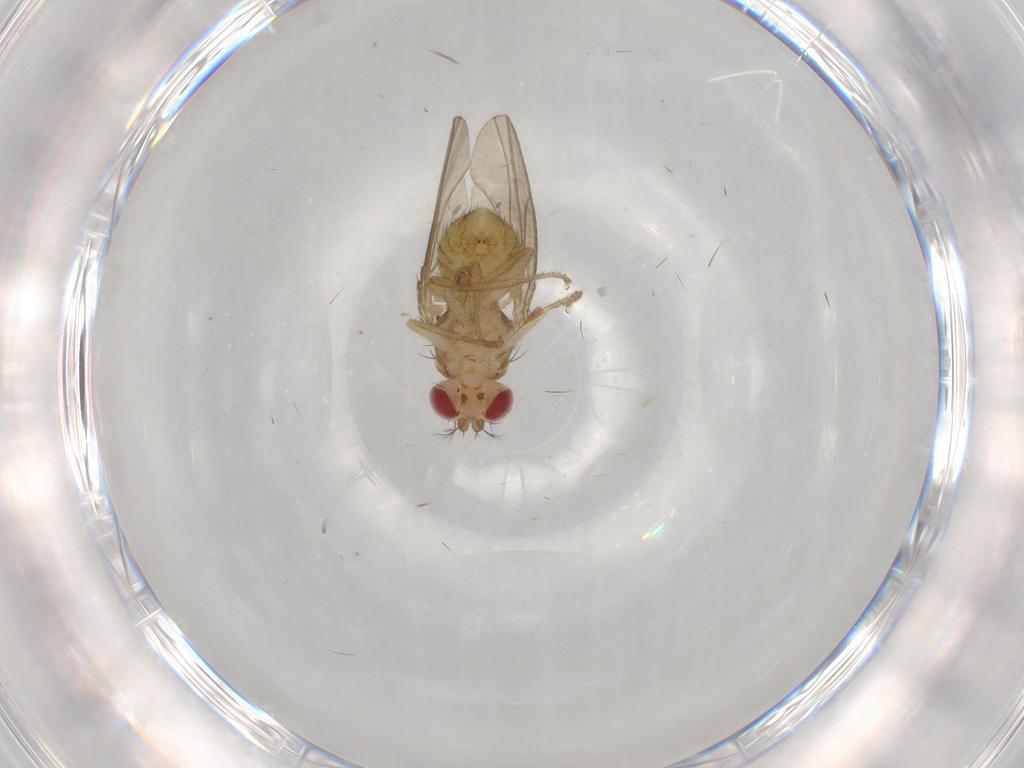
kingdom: Animalia
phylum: Arthropoda
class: Insecta
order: Diptera
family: Drosophilidae
